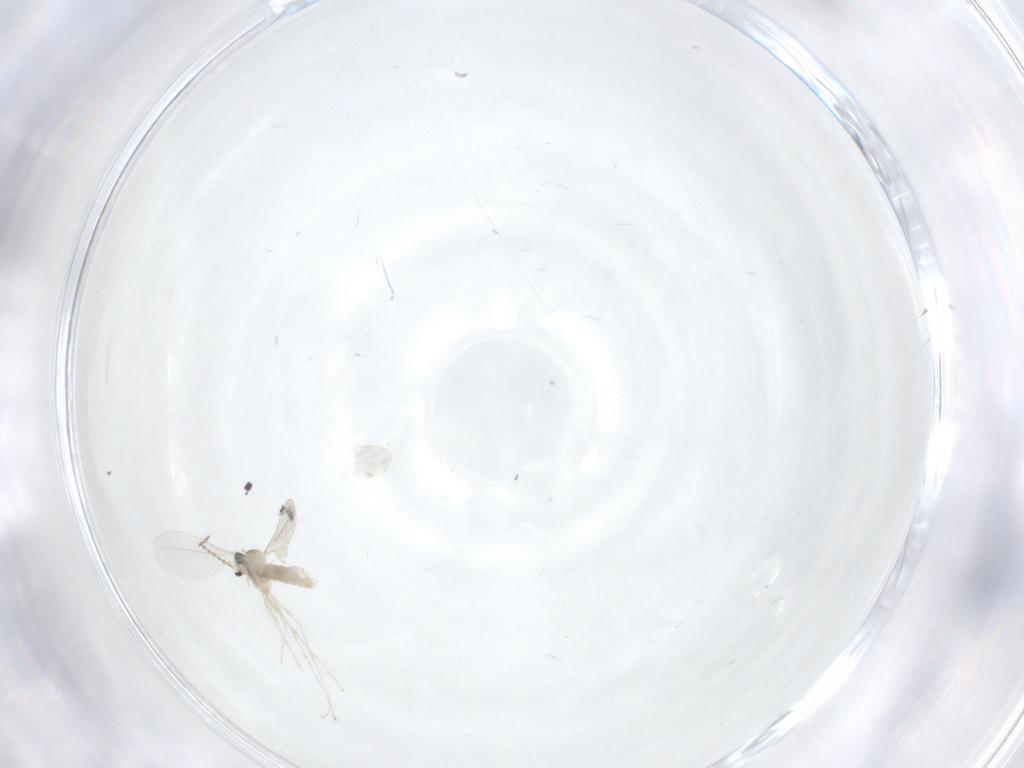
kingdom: Animalia
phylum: Arthropoda
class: Insecta
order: Diptera
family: Cecidomyiidae
